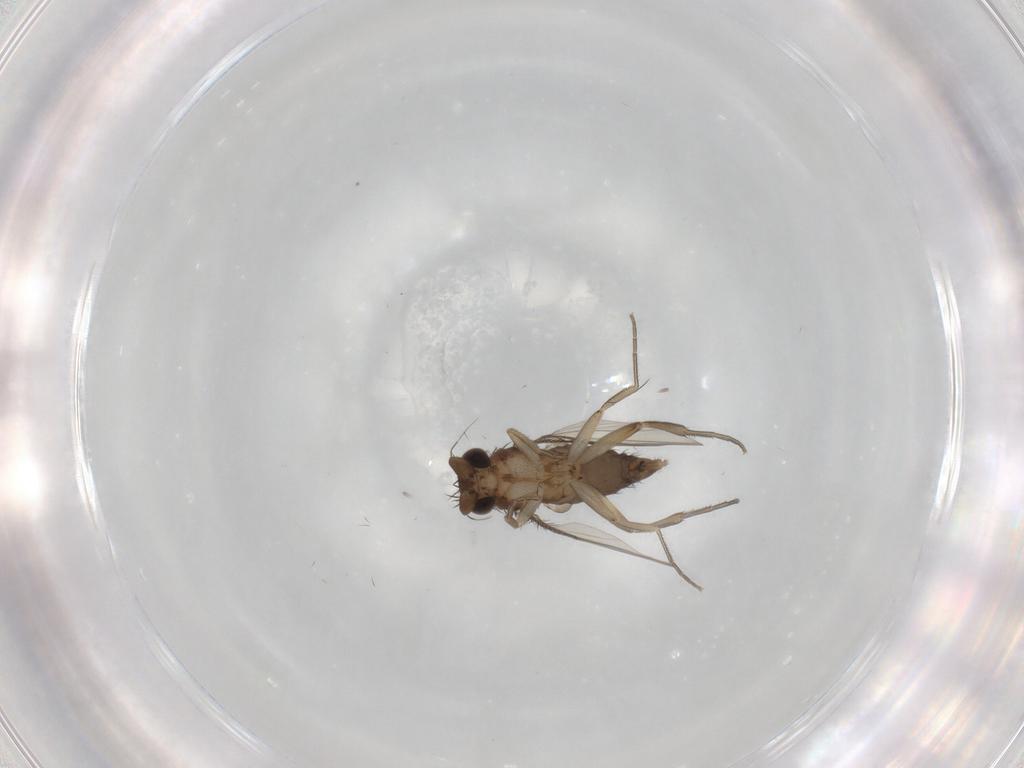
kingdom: Animalia
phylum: Arthropoda
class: Insecta
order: Diptera
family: Phoridae
